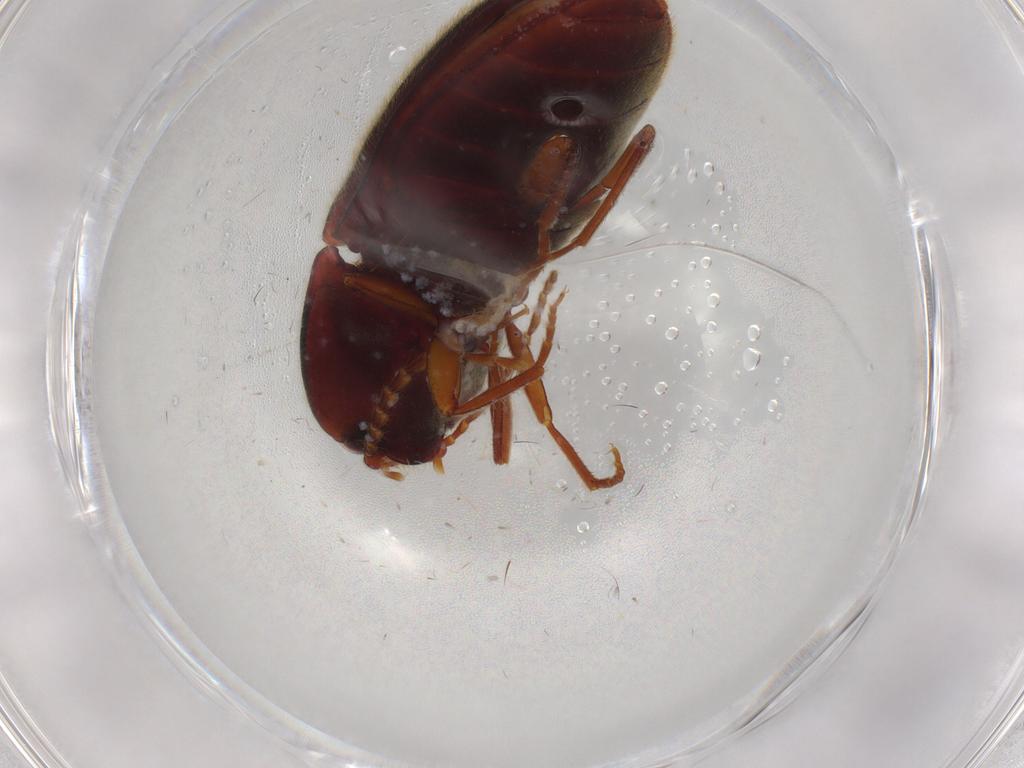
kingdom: Animalia
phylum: Arthropoda
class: Insecta
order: Coleoptera
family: Elateridae
